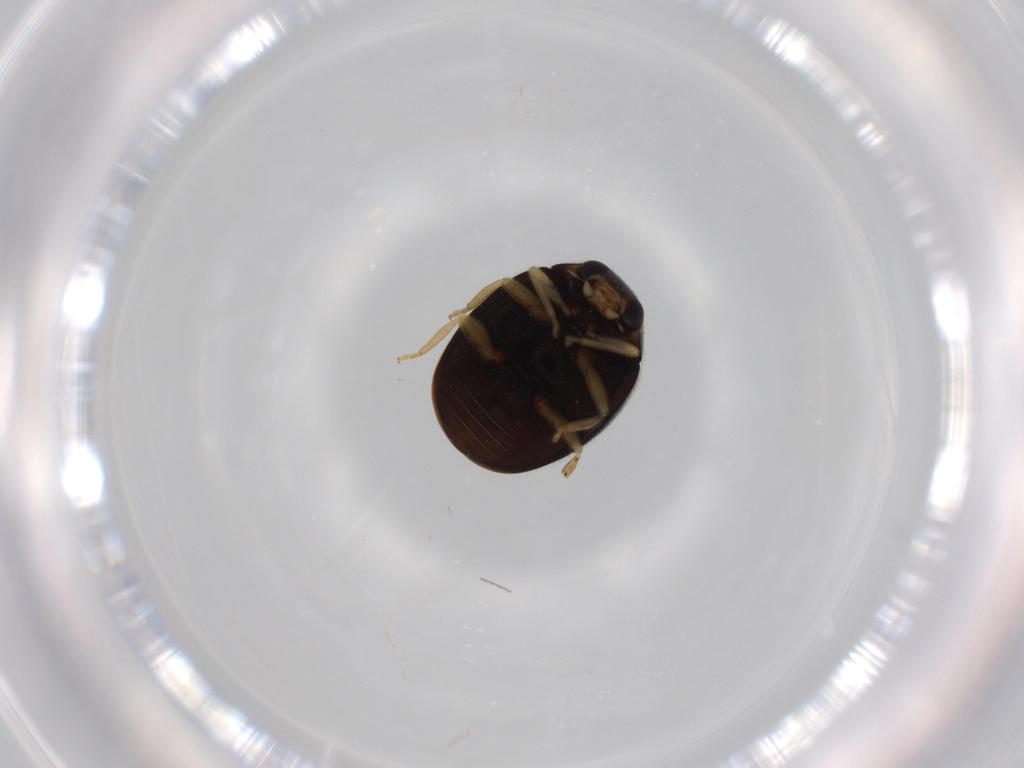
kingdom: Animalia
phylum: Arthropoda
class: Insecta
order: Coleoptera
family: Coccinellidae
